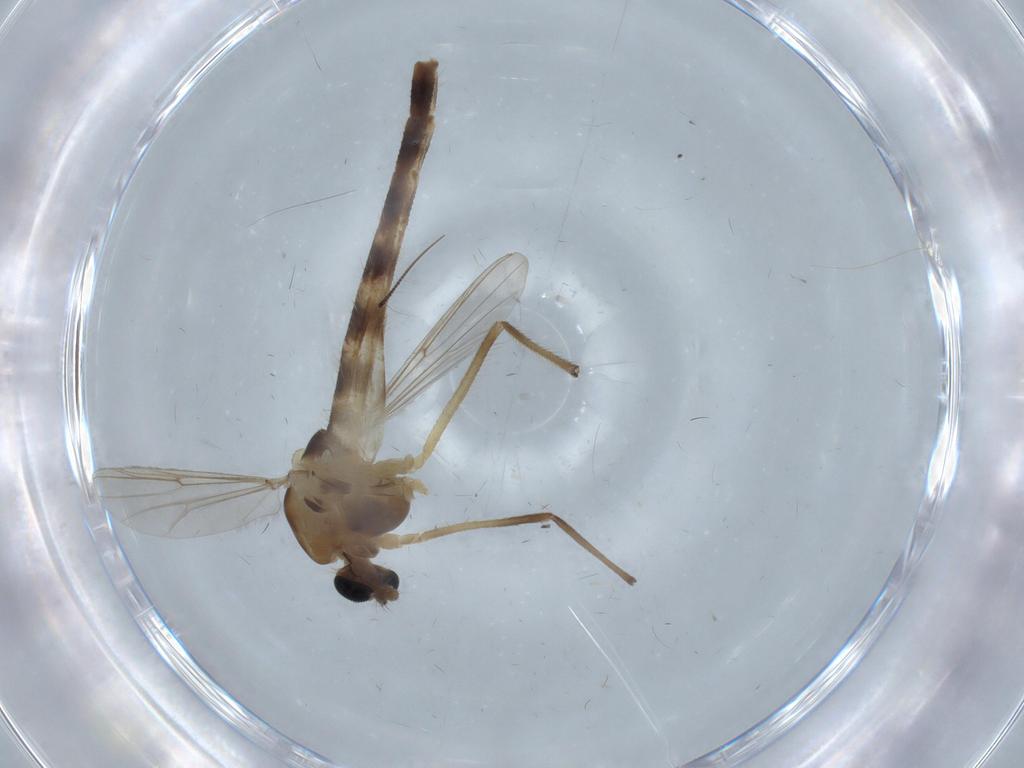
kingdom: Animalia
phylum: Arthropoda
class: Insecta
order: Diptera
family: Chironomidae
